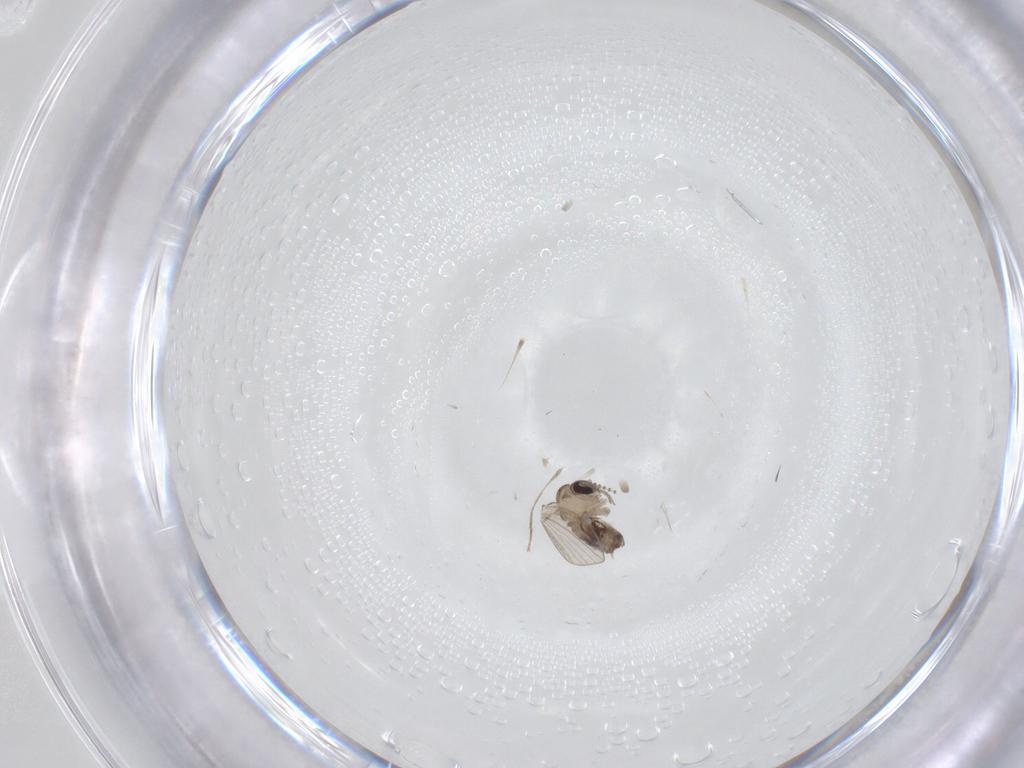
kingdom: Animalia
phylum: Arthropoda
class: Insecta
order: Diptera
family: Psychodidae
